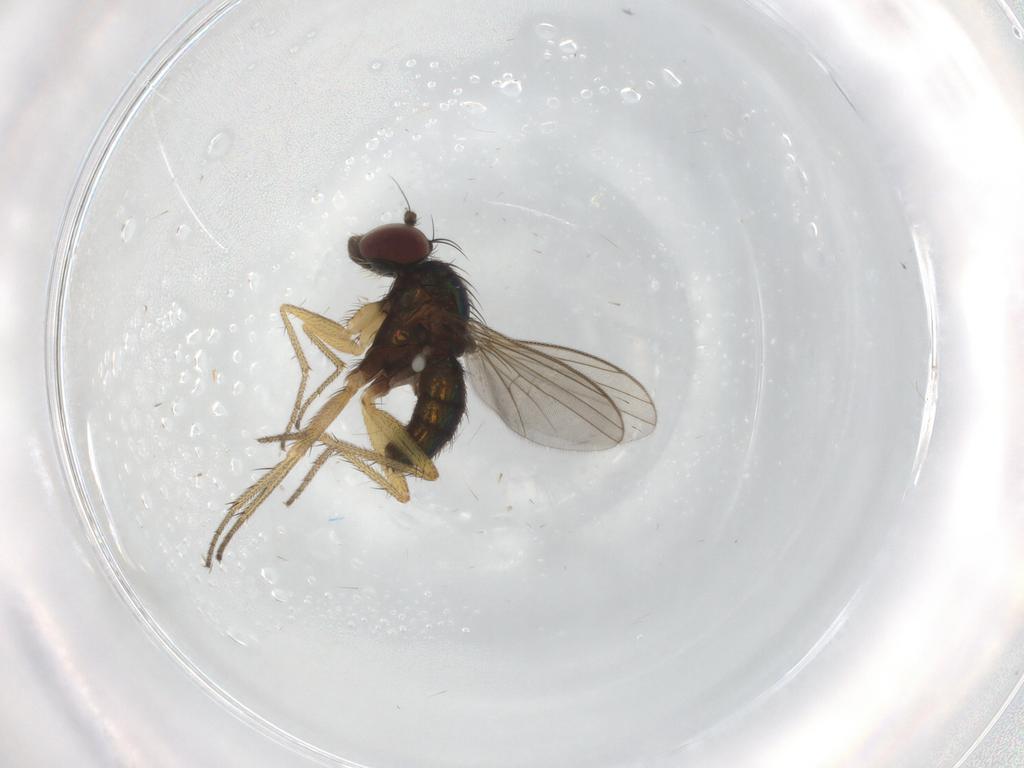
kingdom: Animalia
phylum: Arthropoda
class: Insecta
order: Diptera
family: Dolichopodidae
